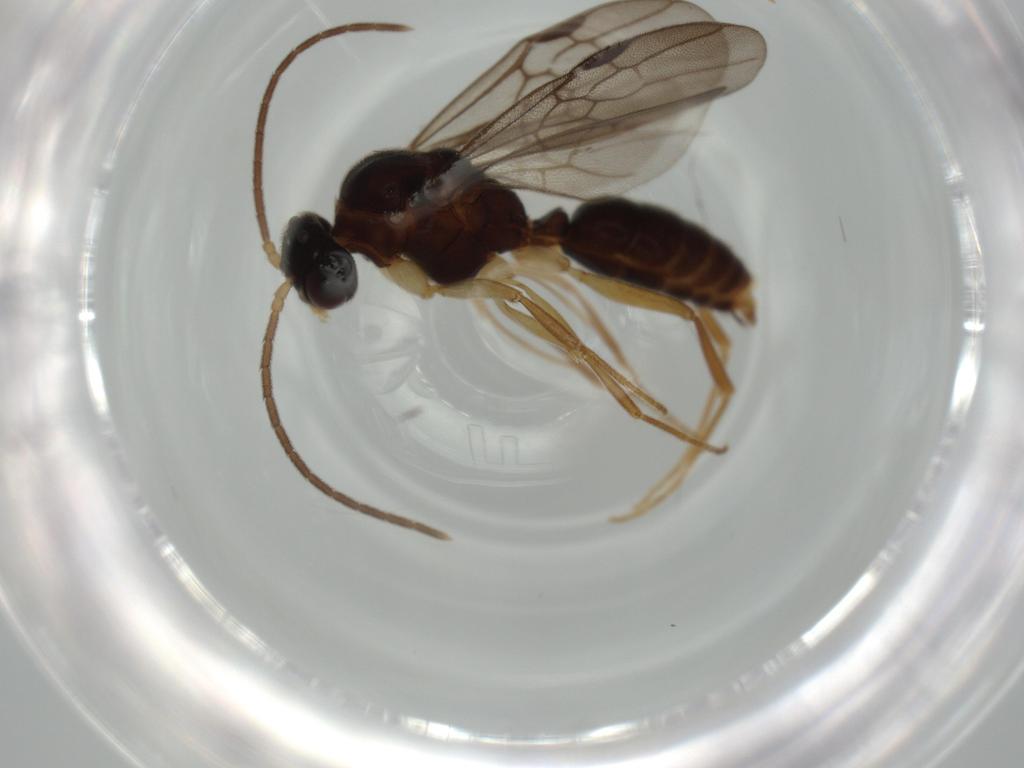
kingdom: Animalia
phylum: Arthropoda
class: Insecta
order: Hymenoptera
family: Formicidae
